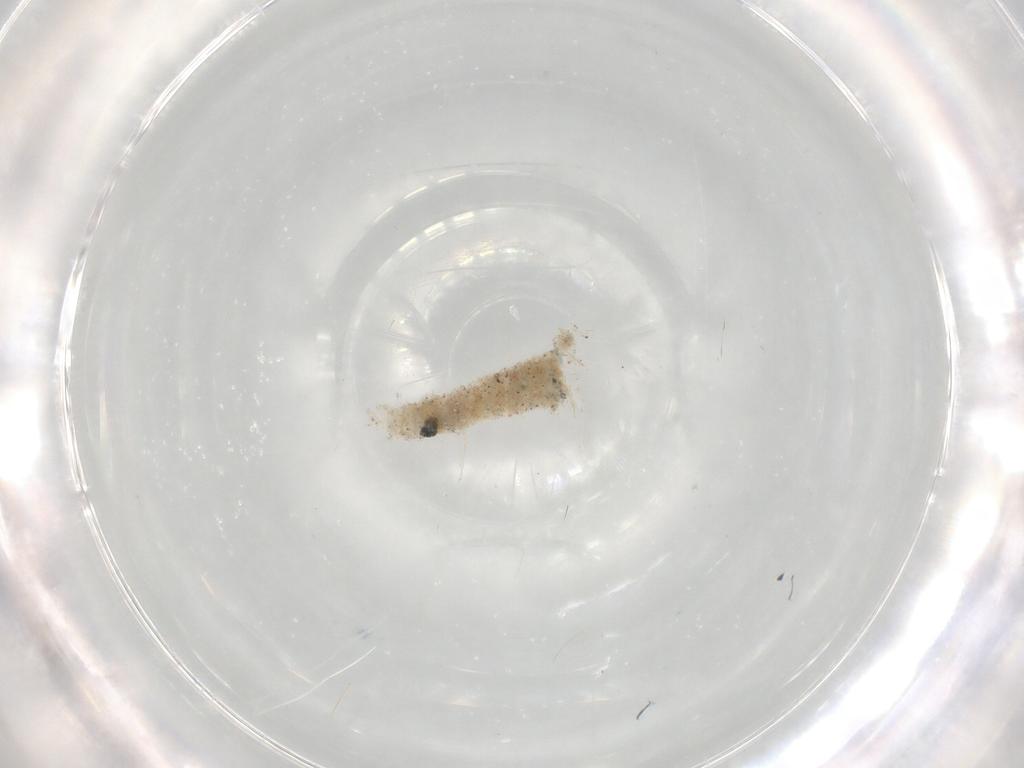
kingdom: Animalia
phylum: Arthropoda
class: Insecta
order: Diptera
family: Sciaridae
